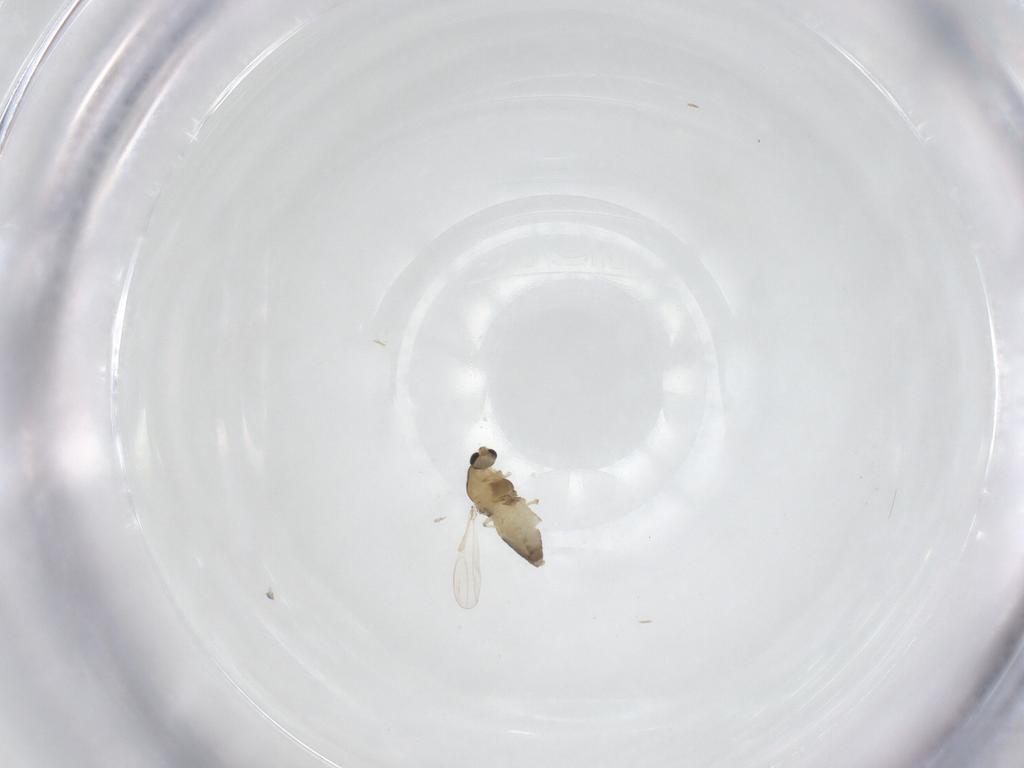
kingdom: Animalia
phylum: Arthropoda
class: Insecta
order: Diptera
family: Chironomidae
